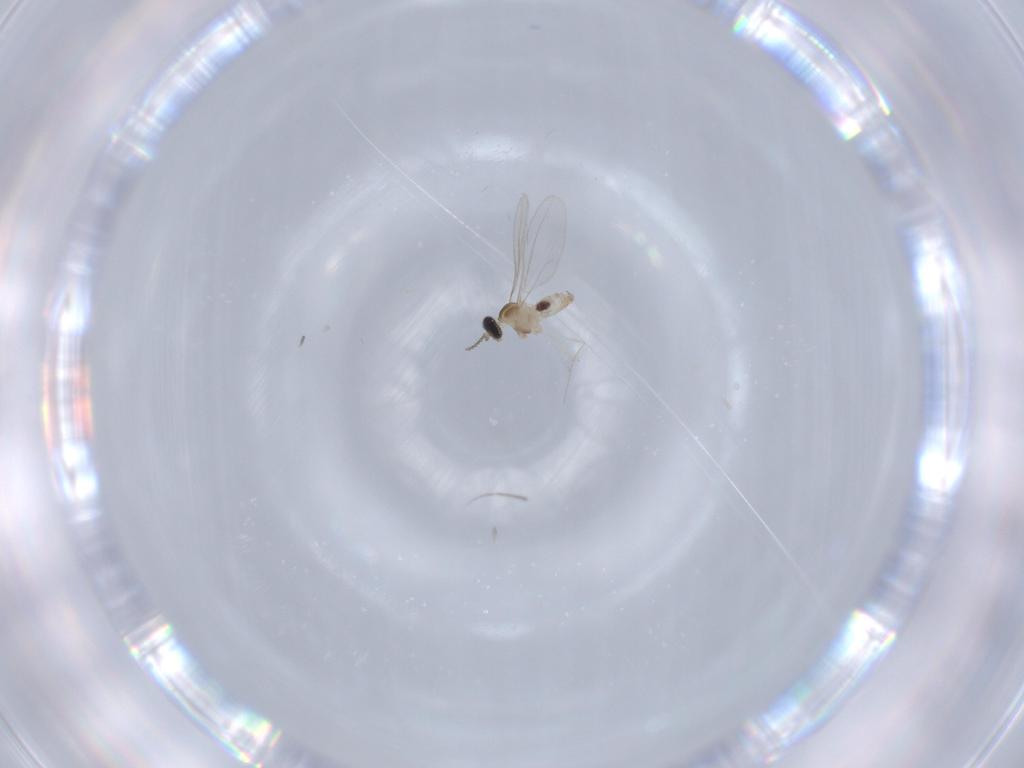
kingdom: Animalia
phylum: Arthropoda
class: Insecta
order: Diptera
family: Cecidomyiidae
